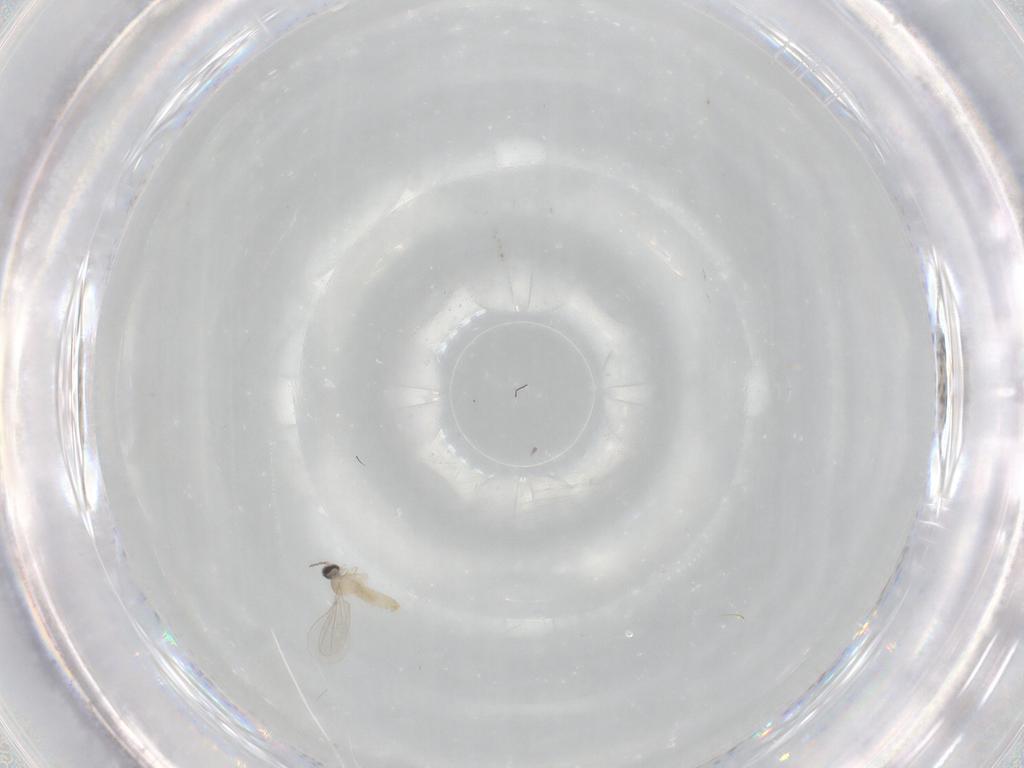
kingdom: Animalia
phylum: Arthropoda
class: Insecta
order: Diptera
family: Cecidomyiidae
